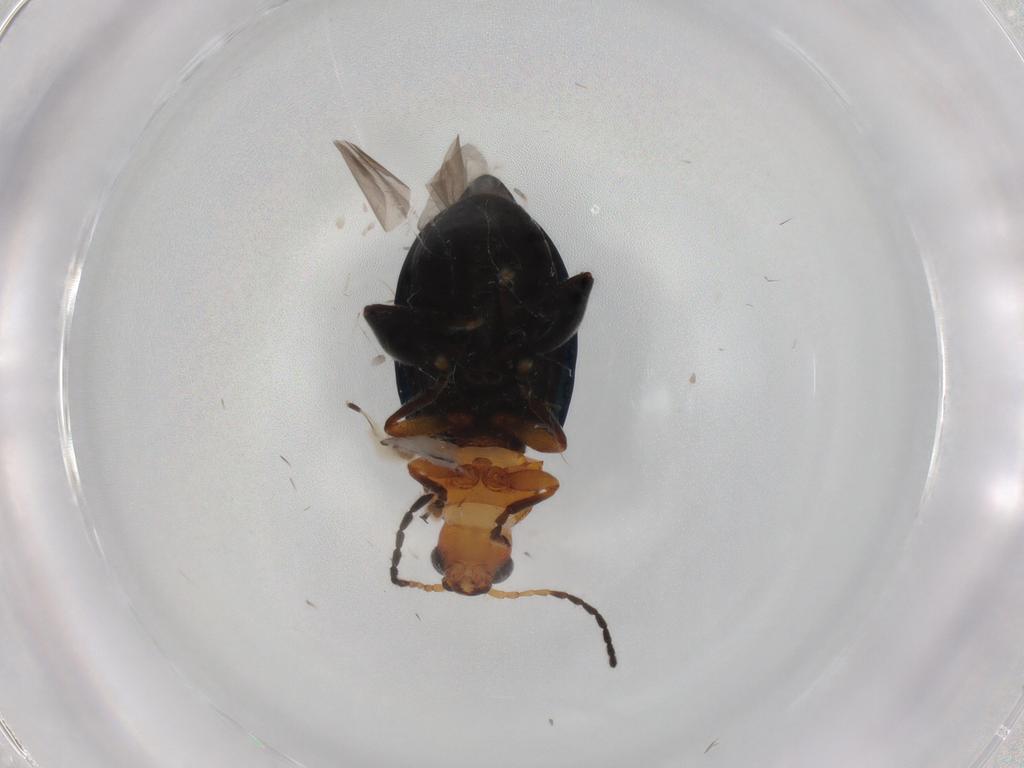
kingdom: Animalia
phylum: Arthropoda
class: Insecta
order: Coleoptera
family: Chrysomelidae
